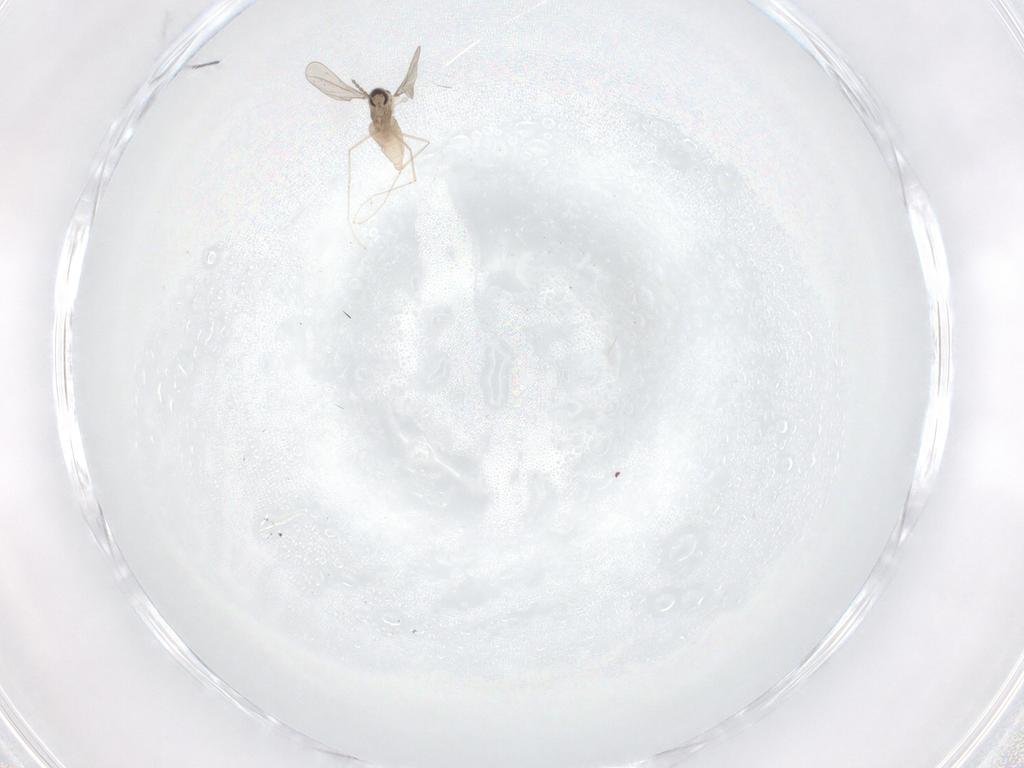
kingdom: Animalia
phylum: Arthropoda
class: Insecta
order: Diptera
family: Sciaridae
